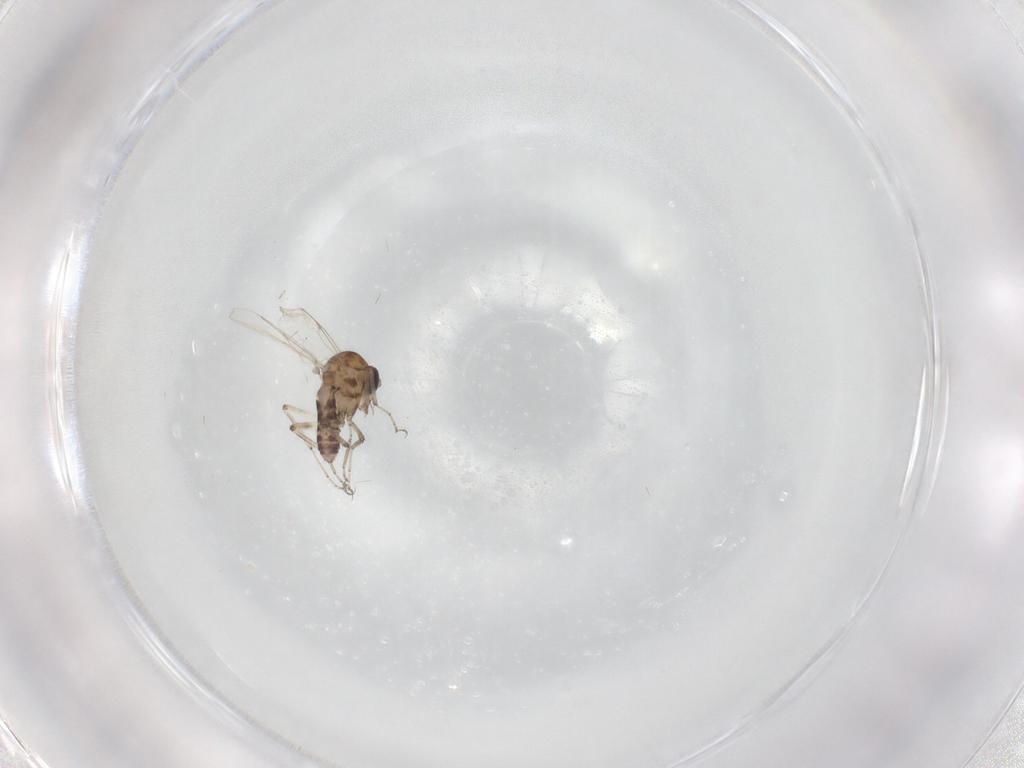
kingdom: Animalia
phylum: Arthropoda
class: Insecta
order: Diptera
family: Ceratopogonidae
